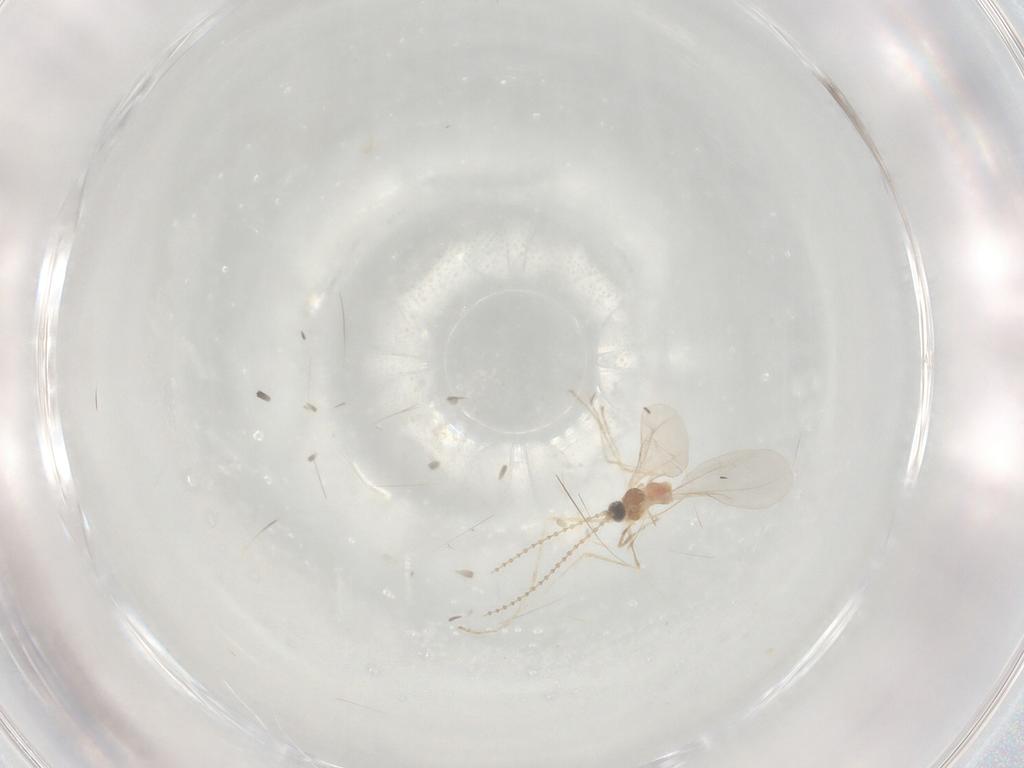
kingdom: Animalia
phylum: Arthropoda
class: Insecta
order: Diptera
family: Cecidomyiidae
